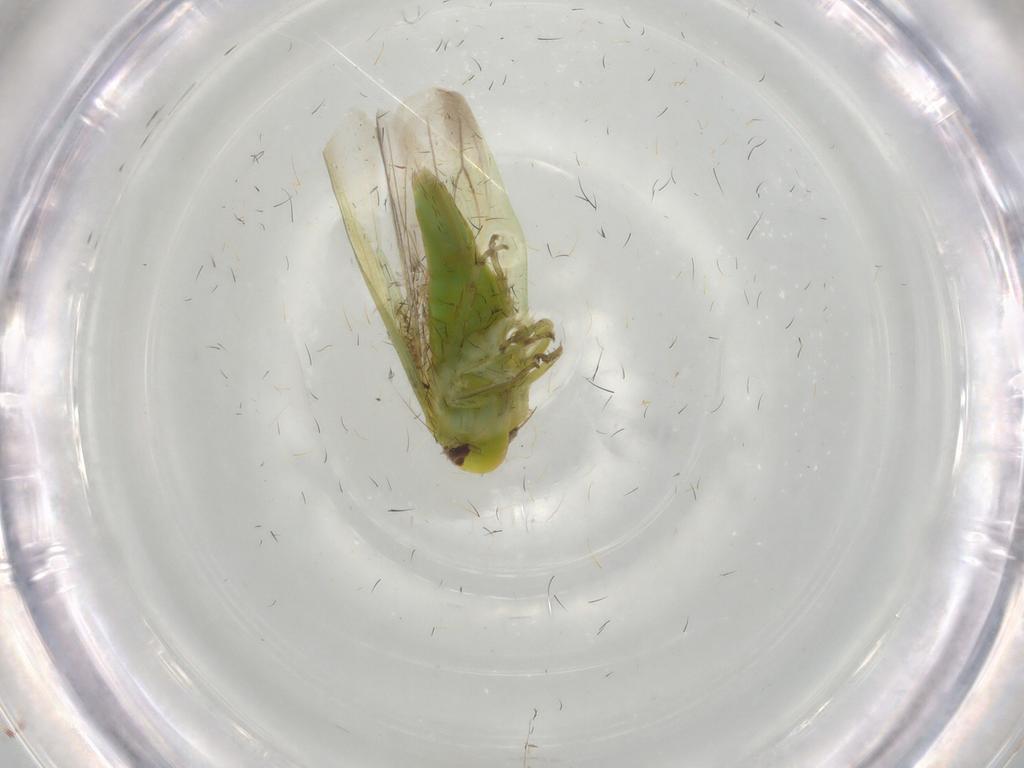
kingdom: Animalia
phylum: Arthropoda
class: Insecta
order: Hemiptera
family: Cicadellidae
